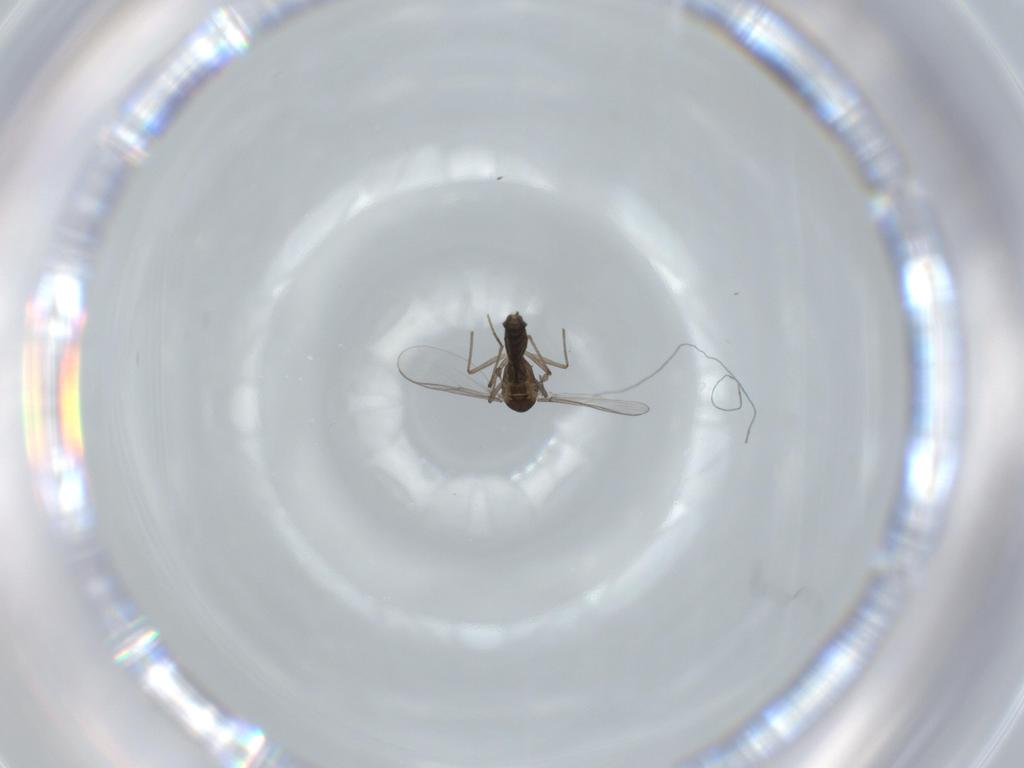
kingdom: Animalia
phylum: Arthropoda
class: Insecta
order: Diptera
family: Chironomidae
